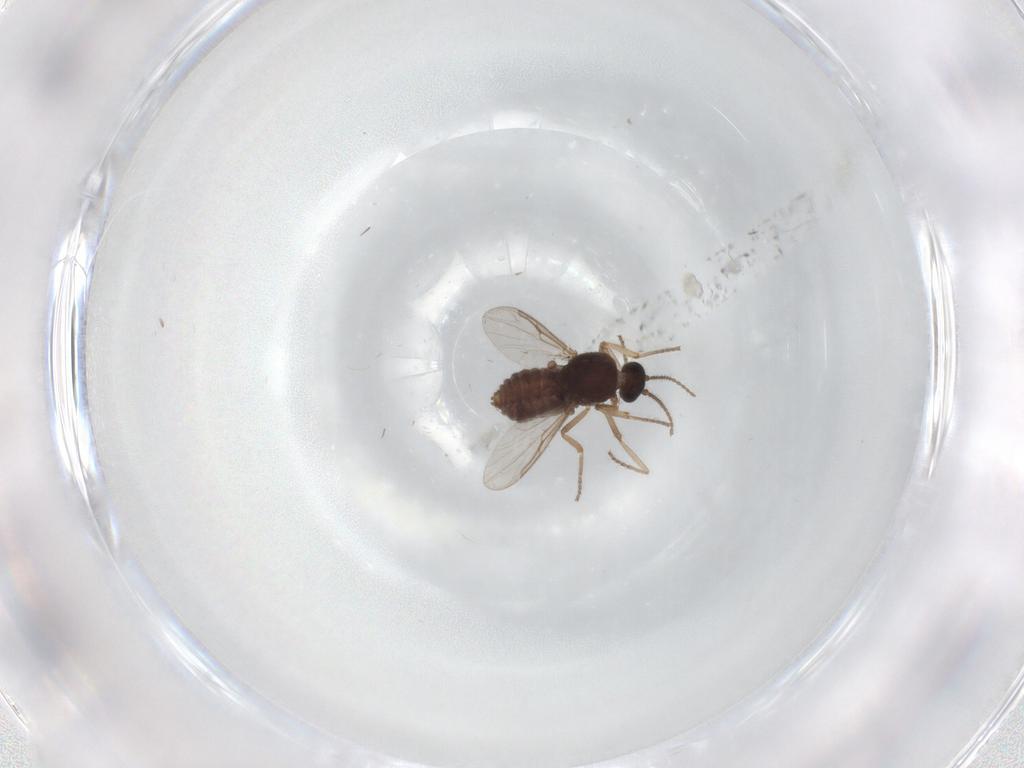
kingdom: Animalia
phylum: Arthropoda
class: Insecta
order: Diptera
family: Ceratopogonidae
